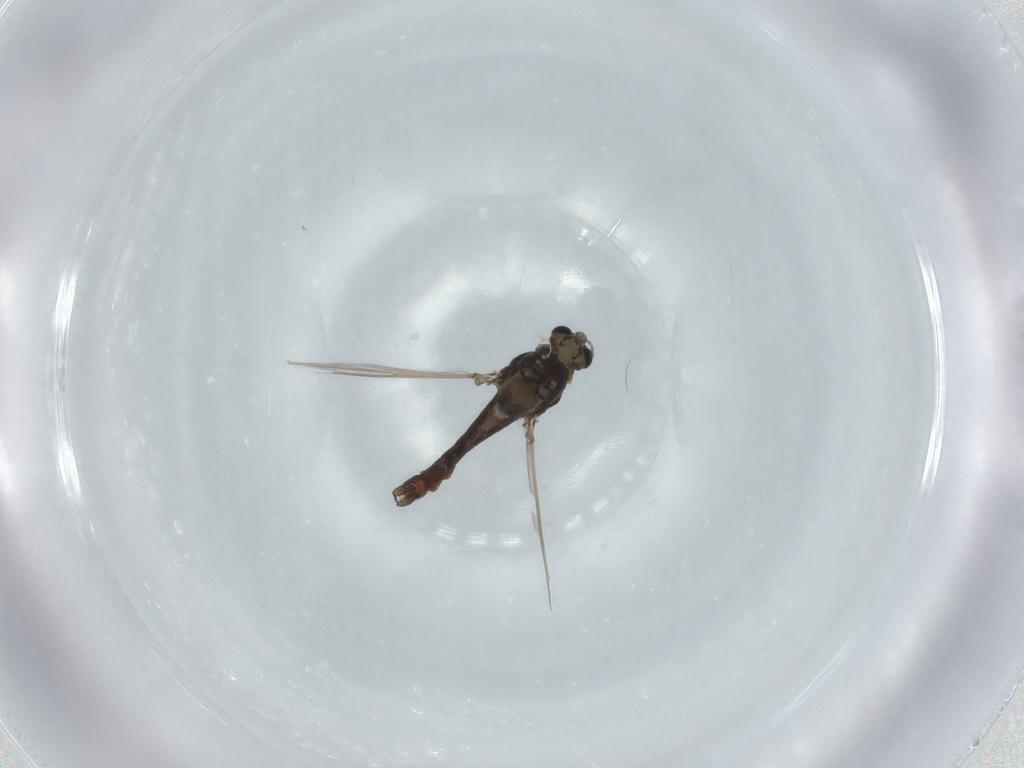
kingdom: Animalia
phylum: Arthropoda
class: Insecta
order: Diptera
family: Chironomidae
